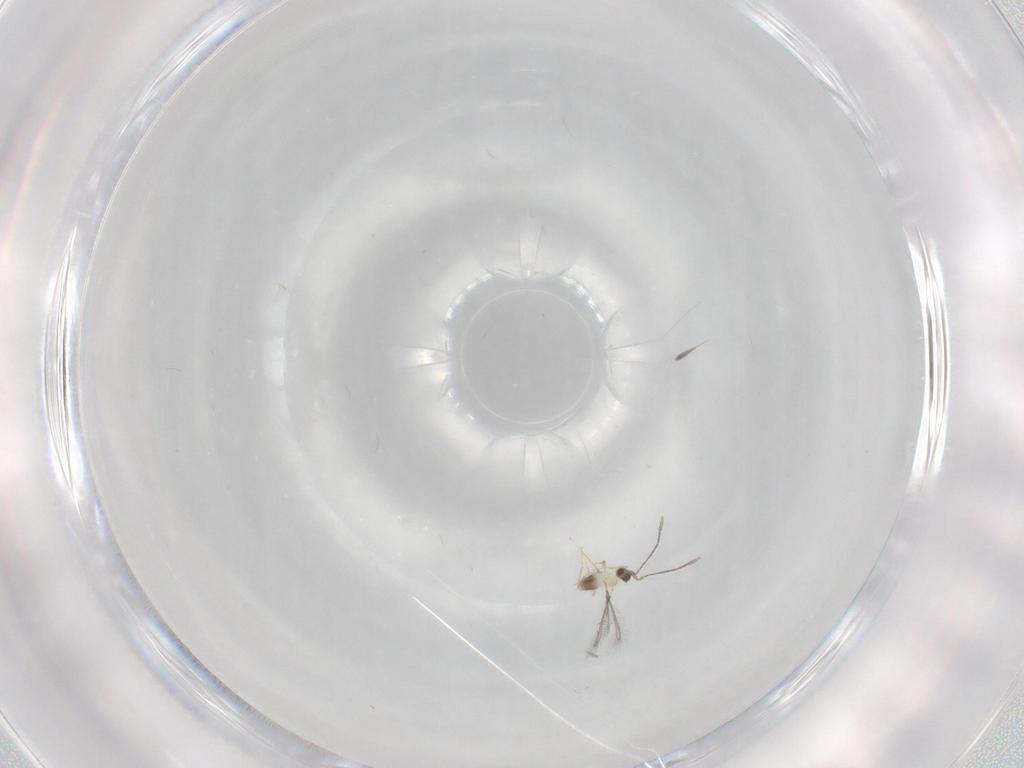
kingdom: Animalia
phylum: Arthropoda
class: Insecta
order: Hymenoptera
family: Mymaridae
